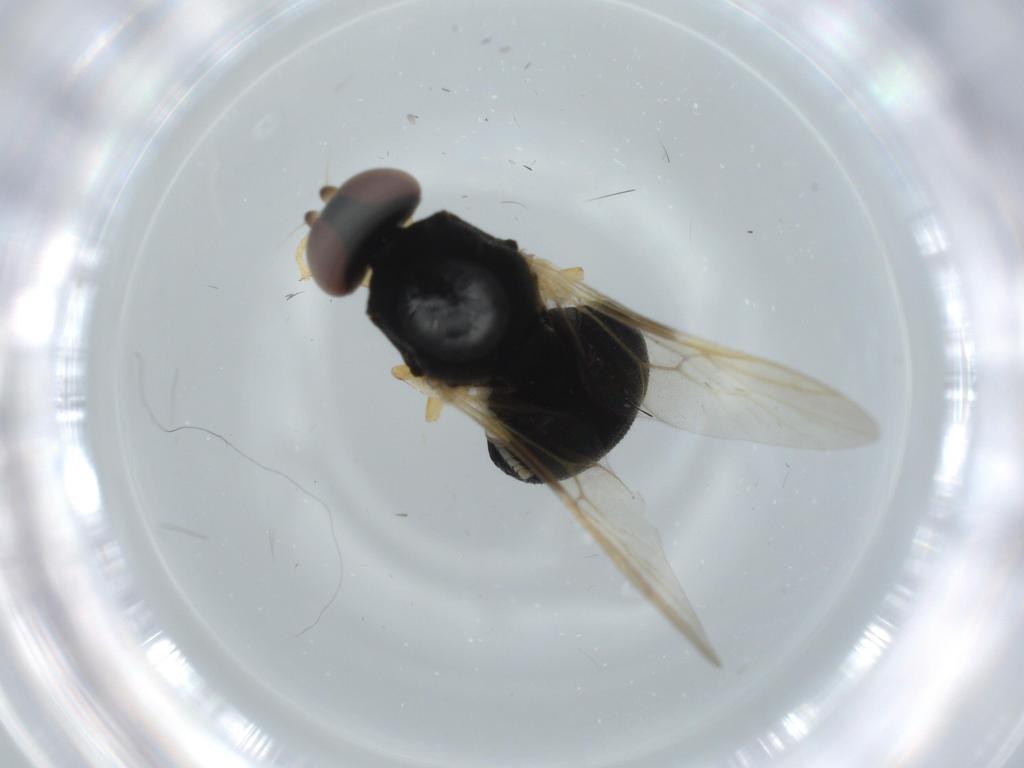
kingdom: Animalia
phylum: Arthropoda
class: Insecta
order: Diptera
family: Stratiomyidae
